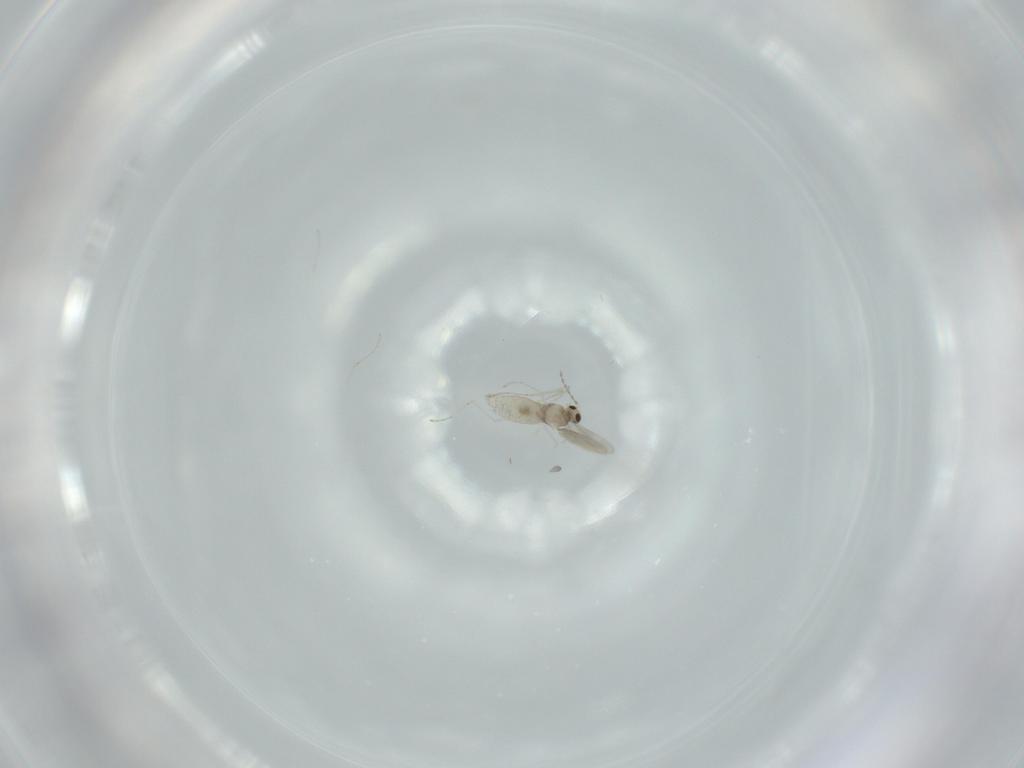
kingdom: Animalia
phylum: Arthropoda
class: Insecta
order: Diptera
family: Cecidomyiidae
